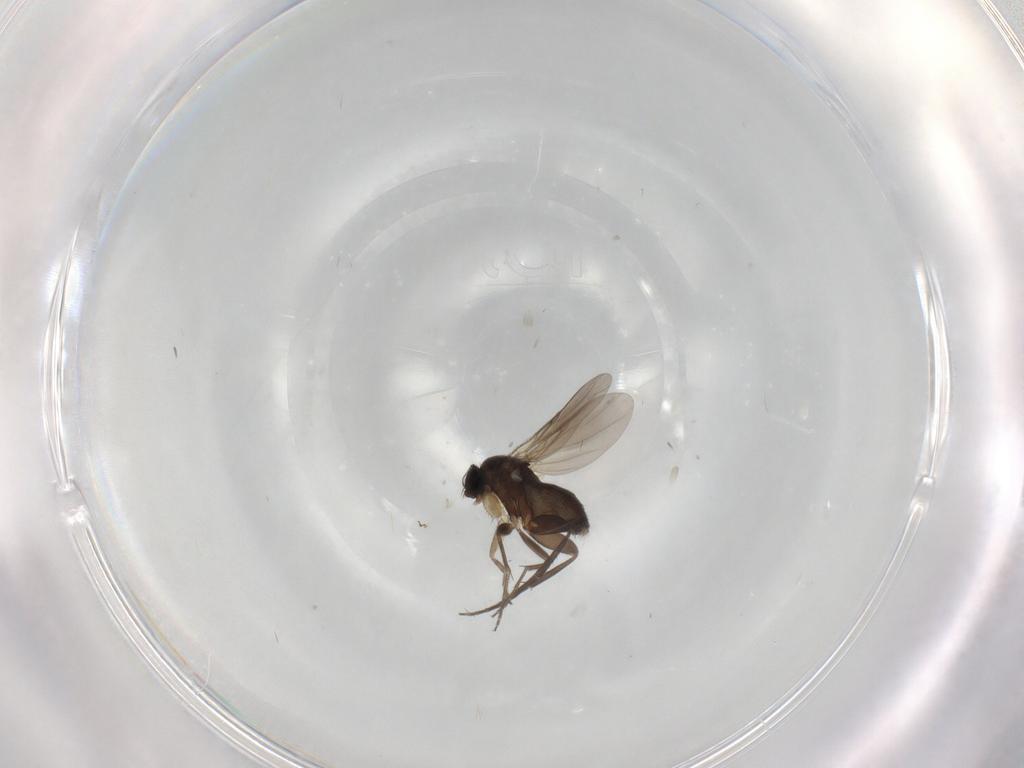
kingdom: Animalia
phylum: Arthropoda
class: Insecta
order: Diptera
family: Phoridae
